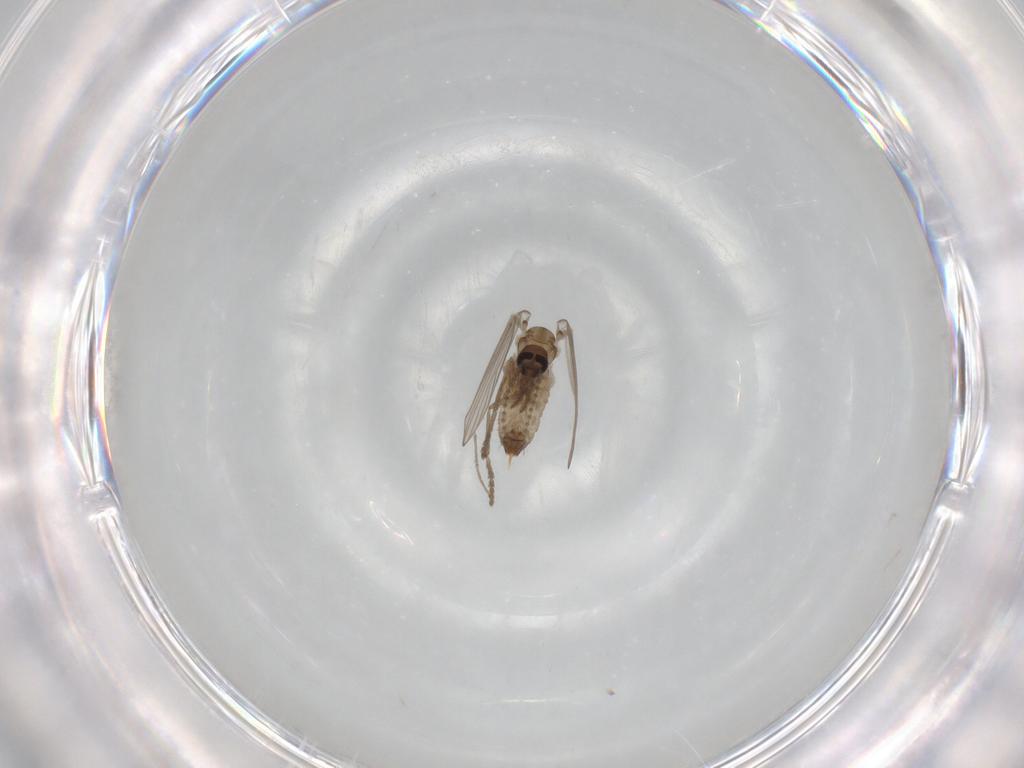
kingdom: Animalia
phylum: Arthropoda
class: Insecta
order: Diptera
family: Psychodidae
